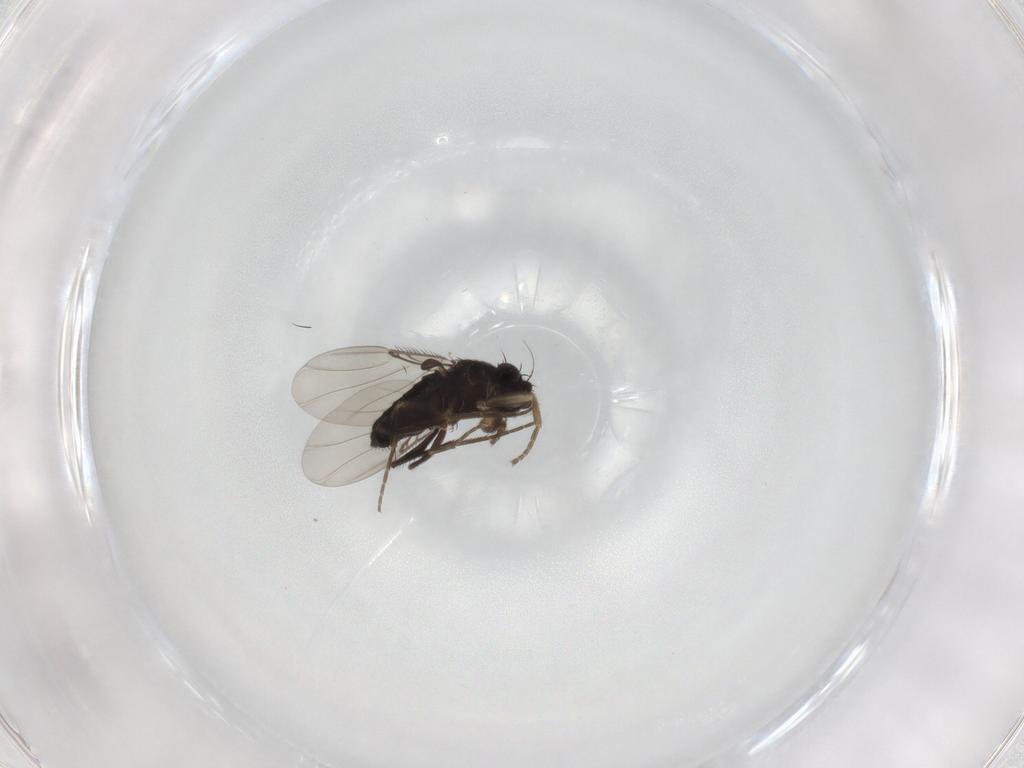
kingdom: Animalia
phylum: Arthropoda
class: Insecta
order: Diptera
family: Phoridae
